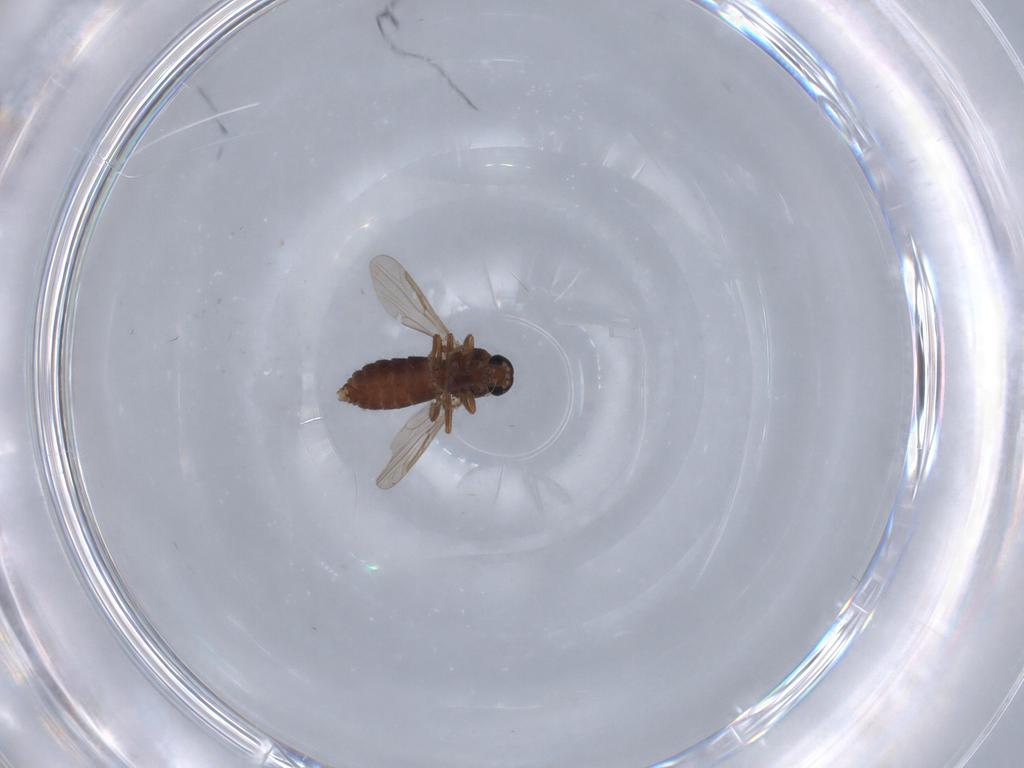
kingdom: Animalia
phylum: Arthropoda
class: Insecta
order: Diptera
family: Ceratopogonidae
